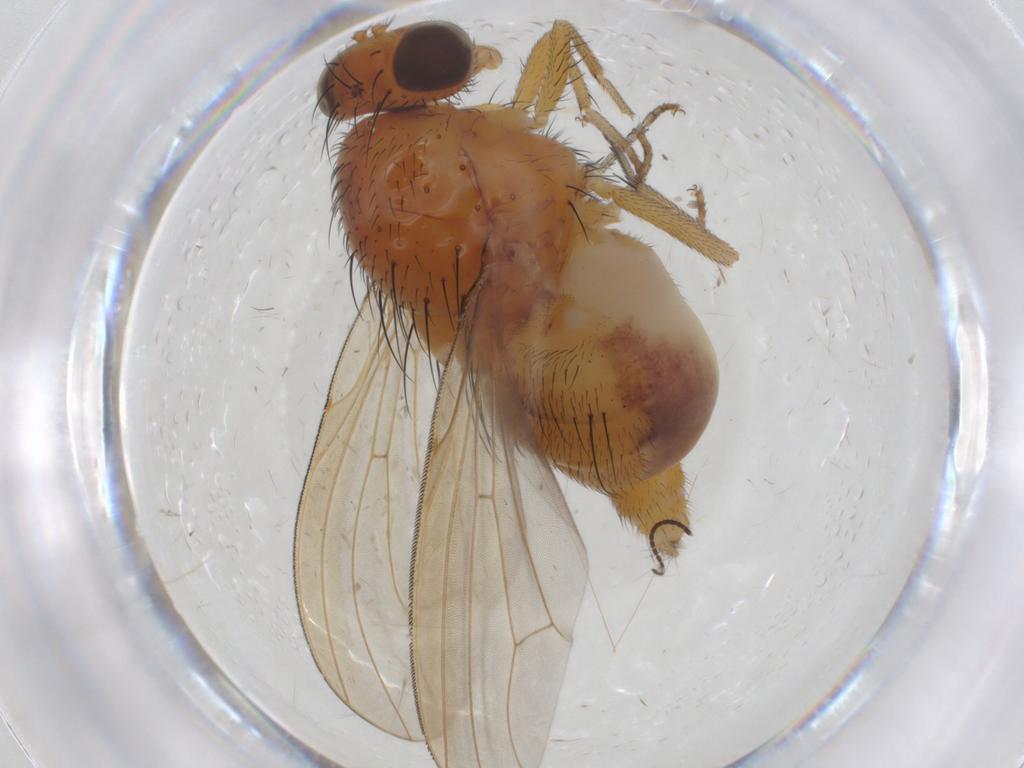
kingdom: Animalia
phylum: Arthropoda
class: Insecta
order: Diptera
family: Sciaridae
